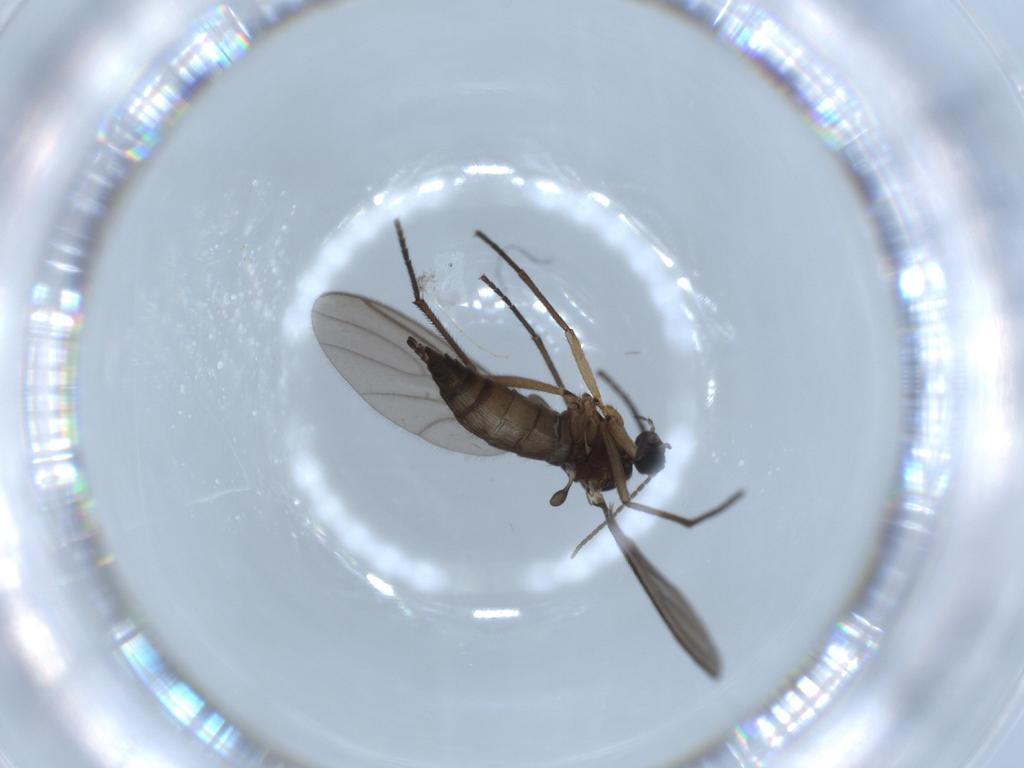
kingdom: Animalia
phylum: Arthropoda
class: Insecta
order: Diptera
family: Sciaridae
